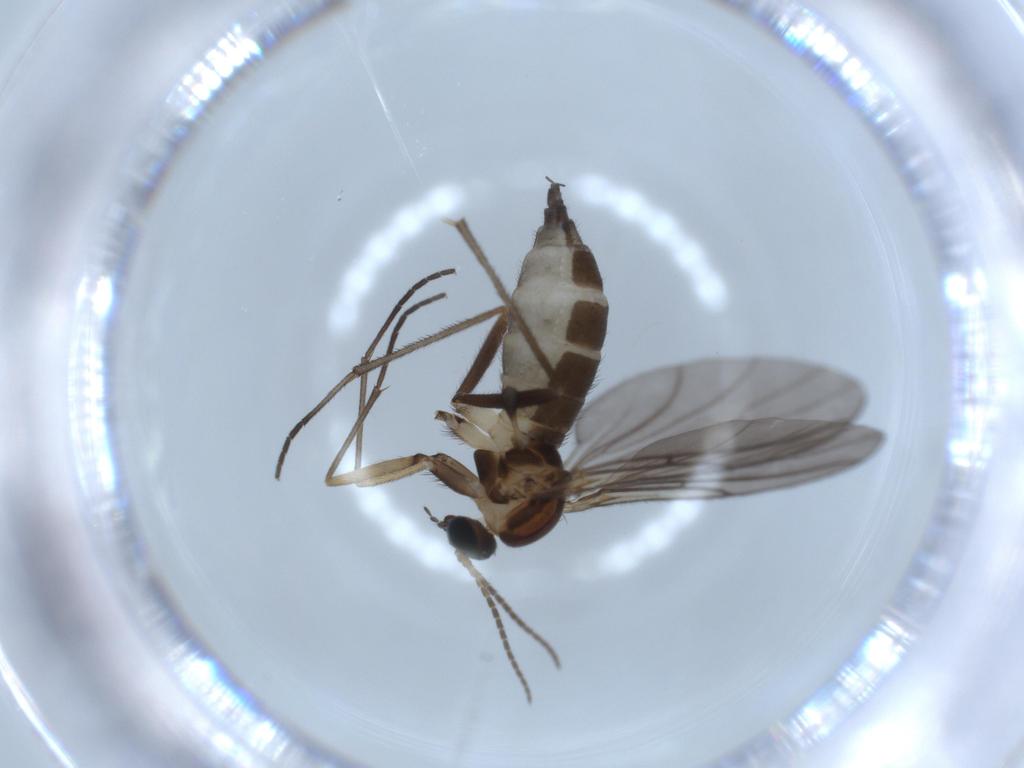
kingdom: Animalia
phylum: Arthropoda
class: Insecta
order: Diptera
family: Sciaridae
